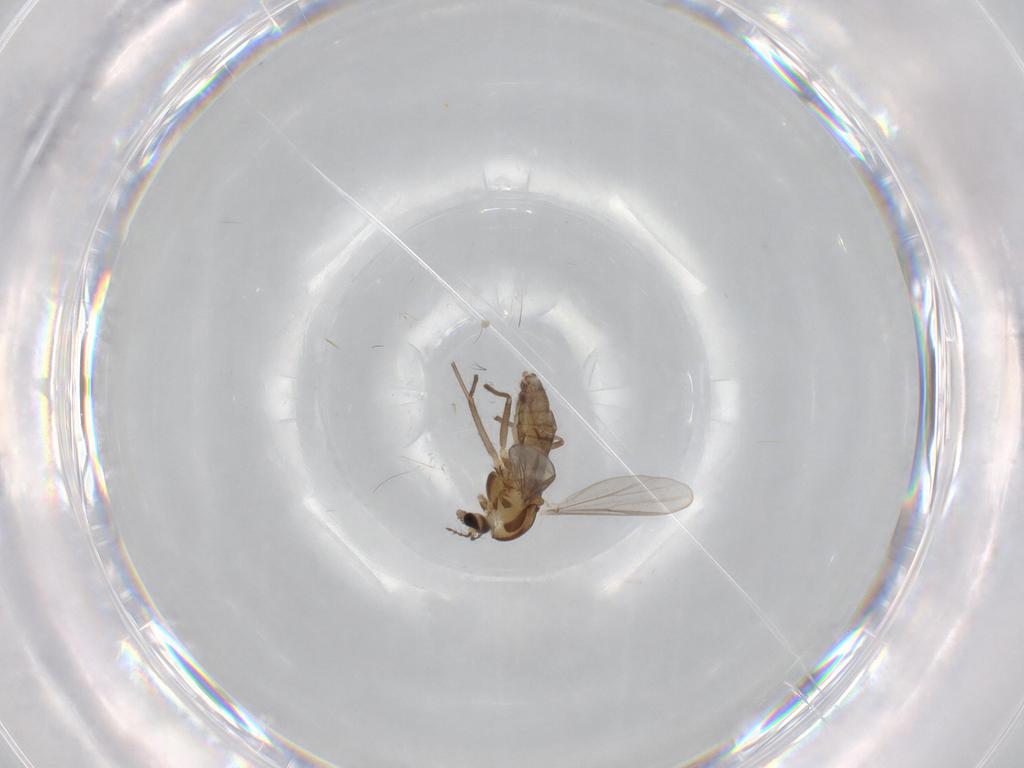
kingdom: Animalia
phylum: Arthropoda
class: Insecta
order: Diptera
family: Chironomidae
